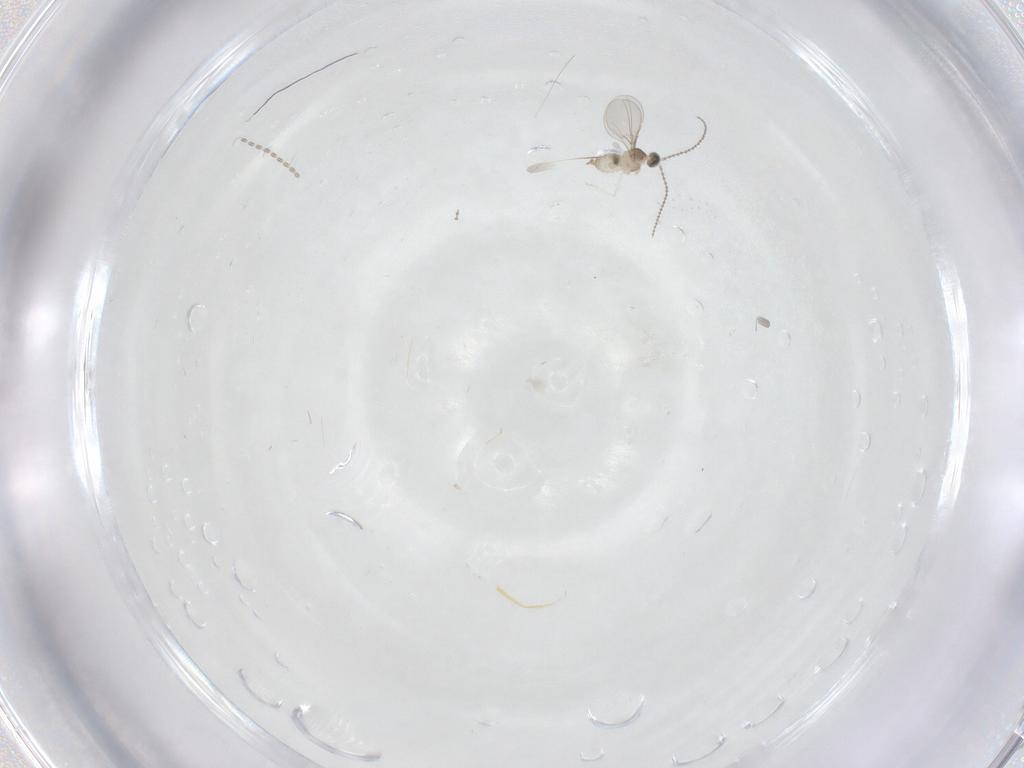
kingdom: Animalia
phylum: Arthropoda
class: Insecta
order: Diptera
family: Cecidomyiidae
